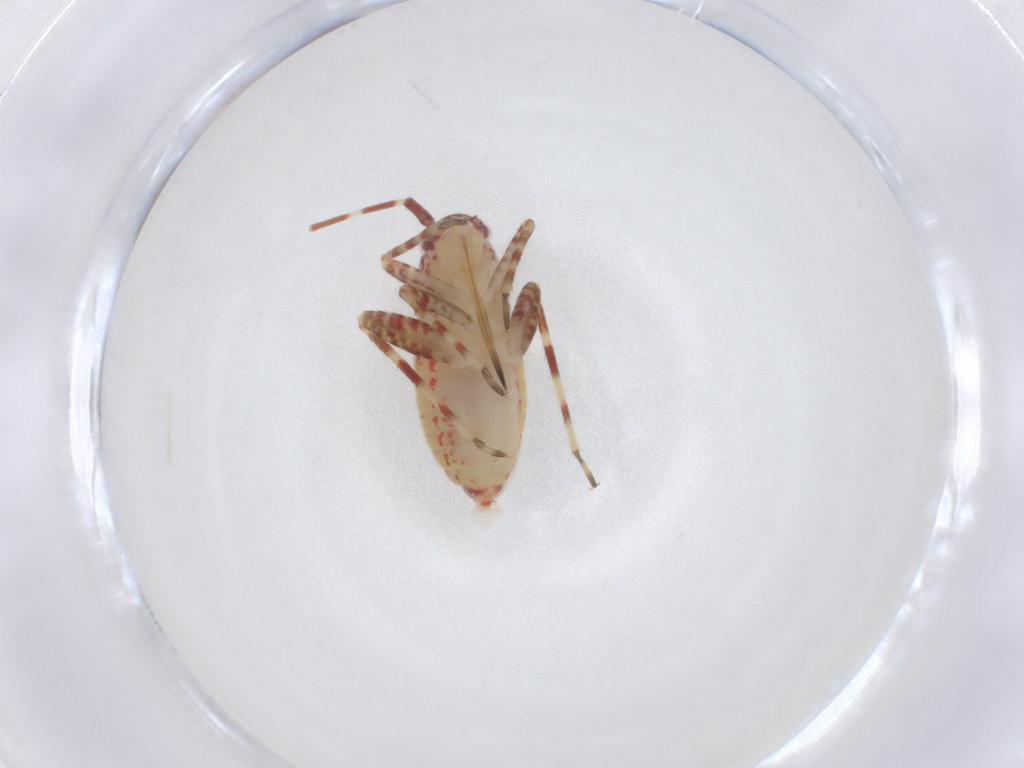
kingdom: Animalia
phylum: Arthropoda
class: Insecta
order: Hemiptera
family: Miridae
